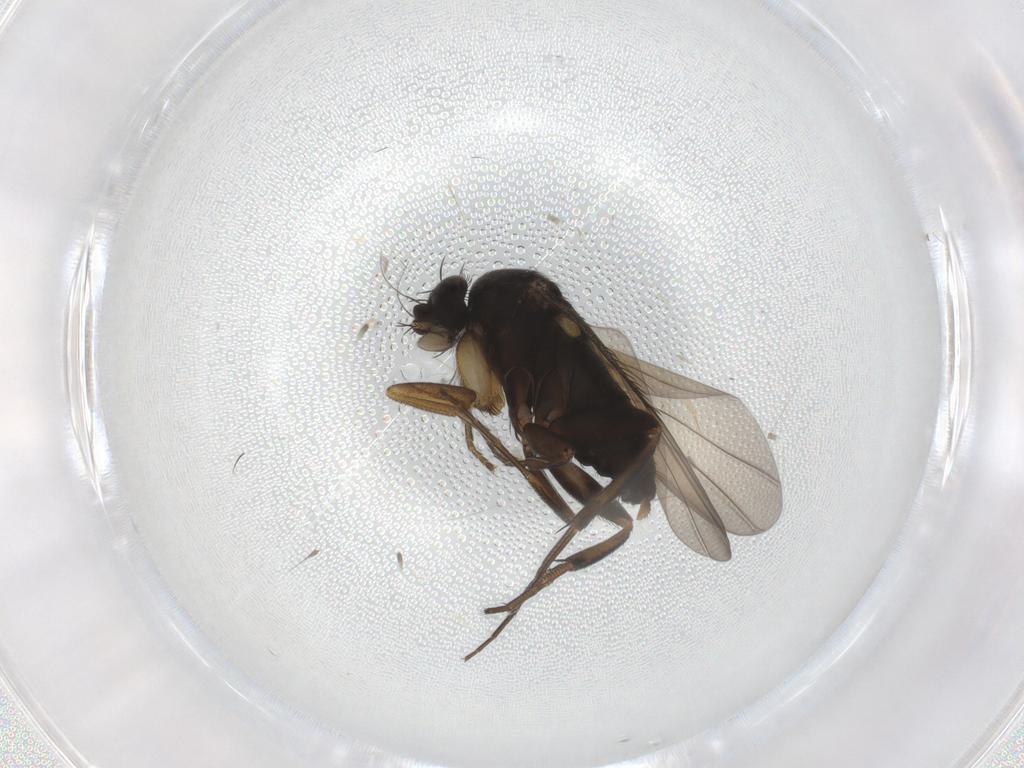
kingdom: Animalia
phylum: Arthropoda
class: Insecta
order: Diptera
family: Phoridae
